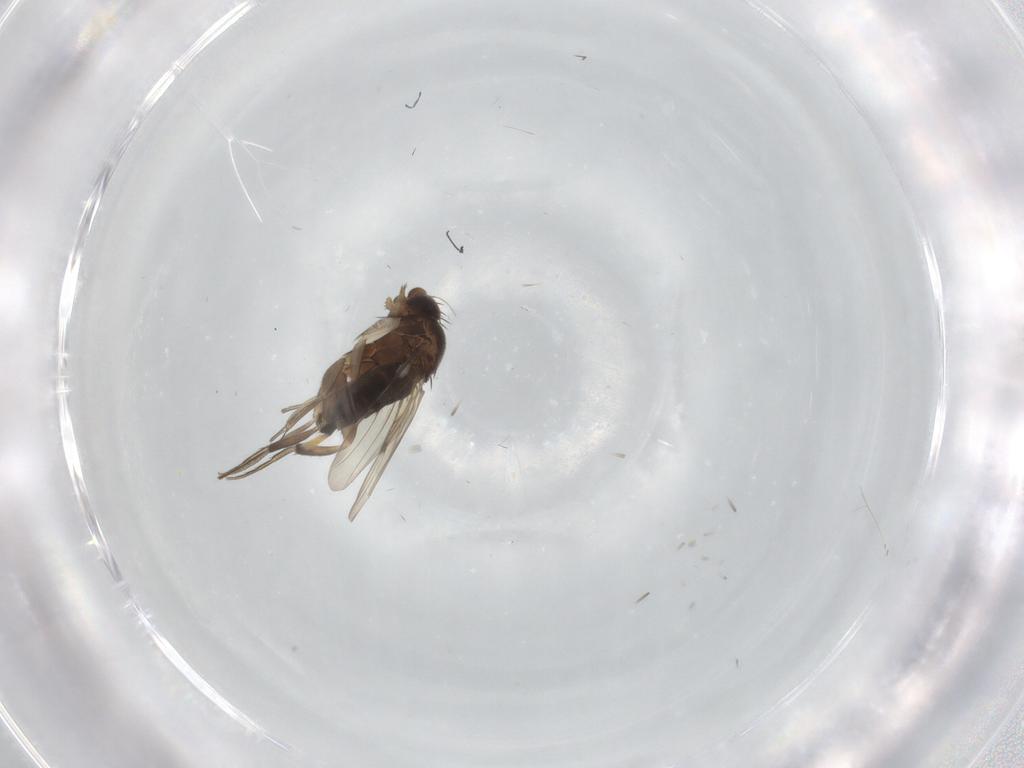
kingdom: Animalia
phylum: Arthropoda
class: Insecta
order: Diptera
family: Phoridae
